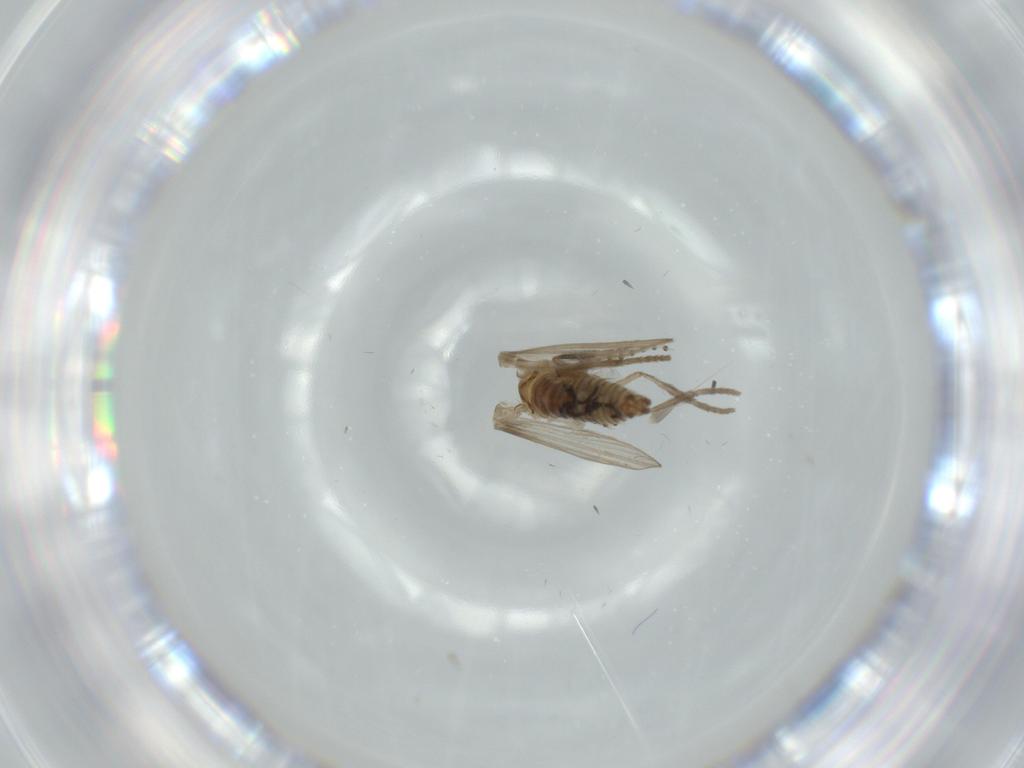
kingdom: Animalia
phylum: Arthropoda
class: Insecta
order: Diptera
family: Psychodidae
